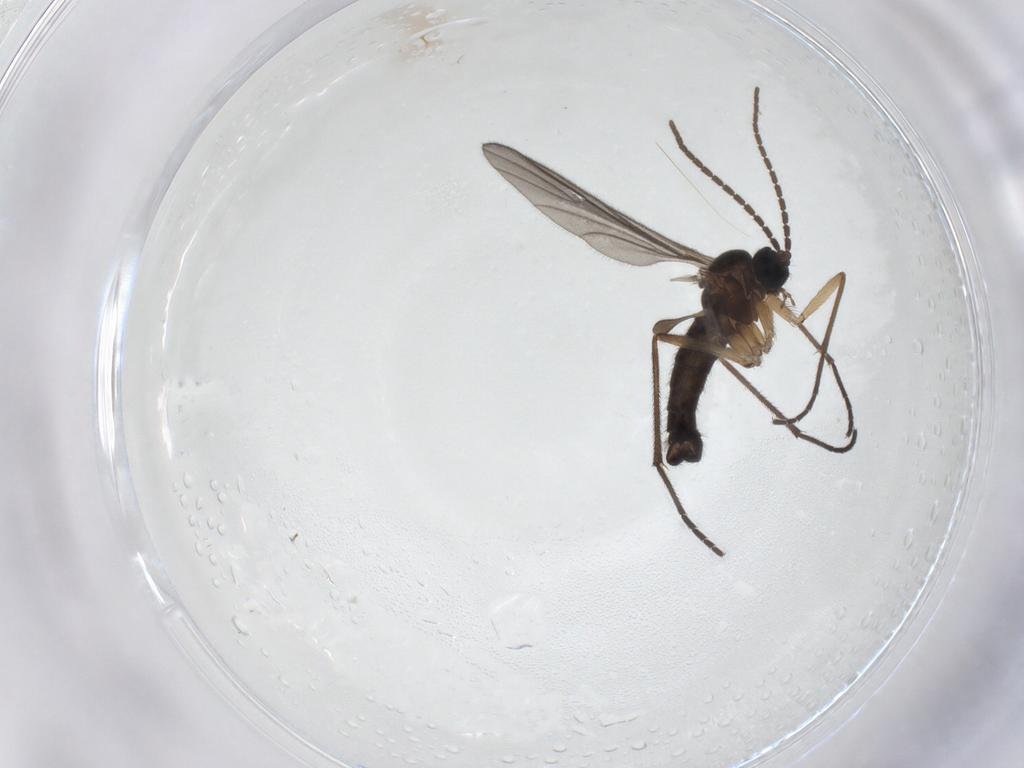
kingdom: Animalia
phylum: Arthropoda
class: Insecta
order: Diptera
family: Sciaridae
